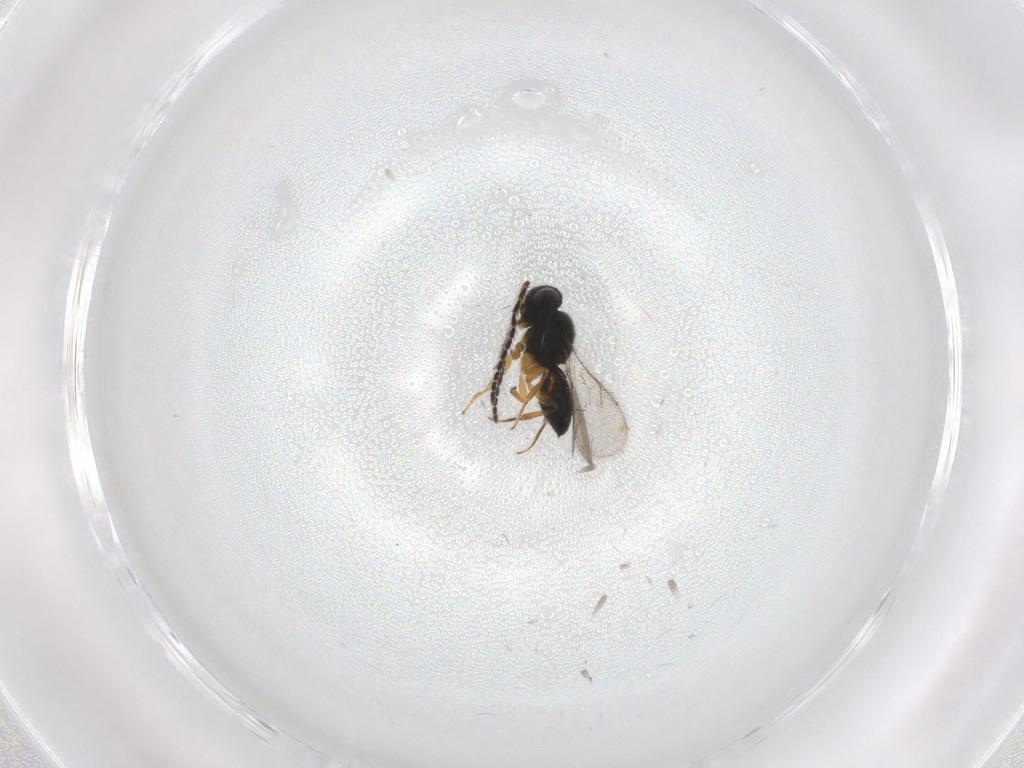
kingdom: Animalia
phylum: Arthropoda
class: Insecta
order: Hymenoptera
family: Scelionidae
